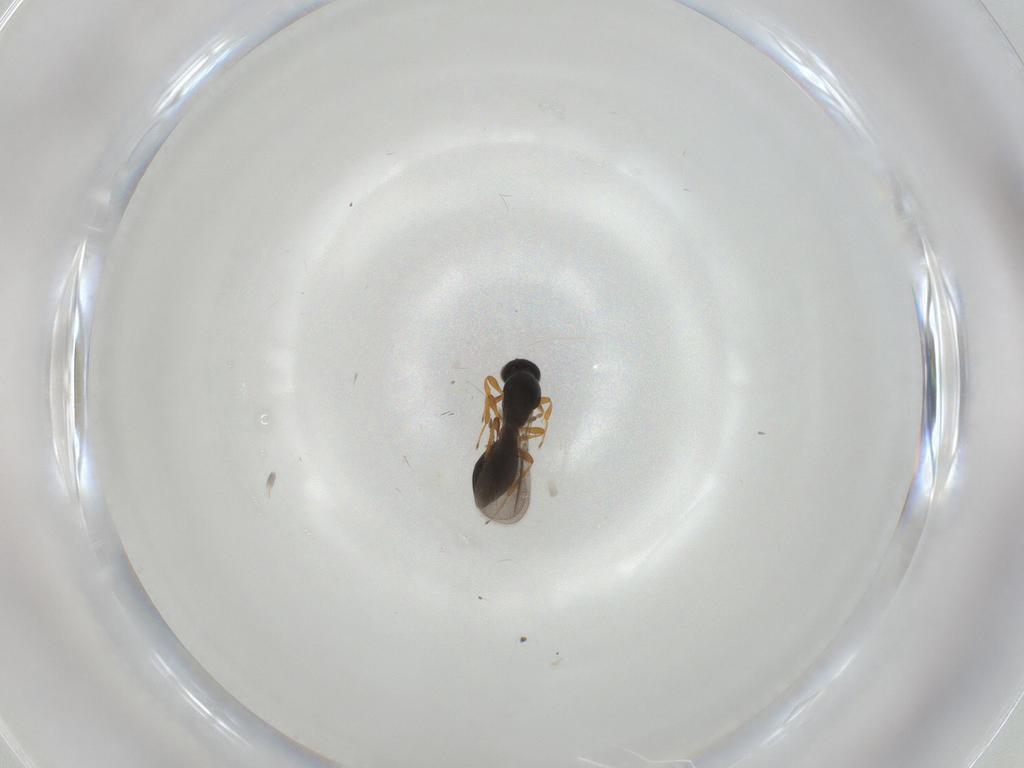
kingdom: Animalia
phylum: Arthropoda
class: Insecta
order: Hymenoptera
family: Platygastridae
